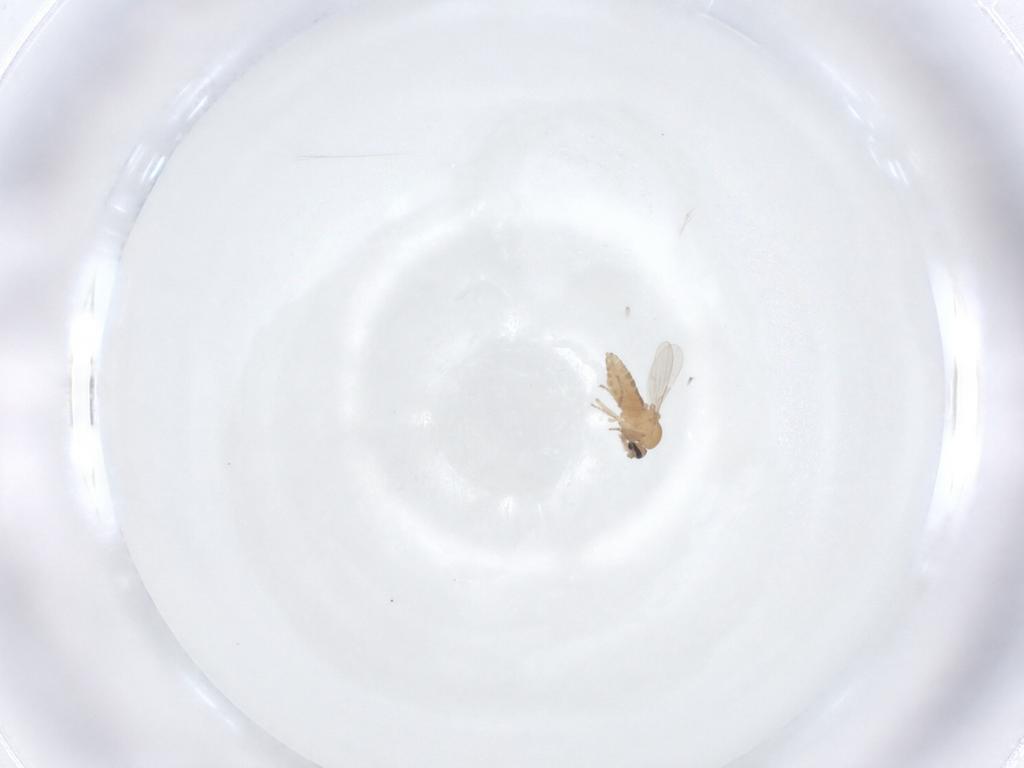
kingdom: Animalia
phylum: Arthropoda
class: Insecta
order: Diptera
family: Ceratopogonidae
